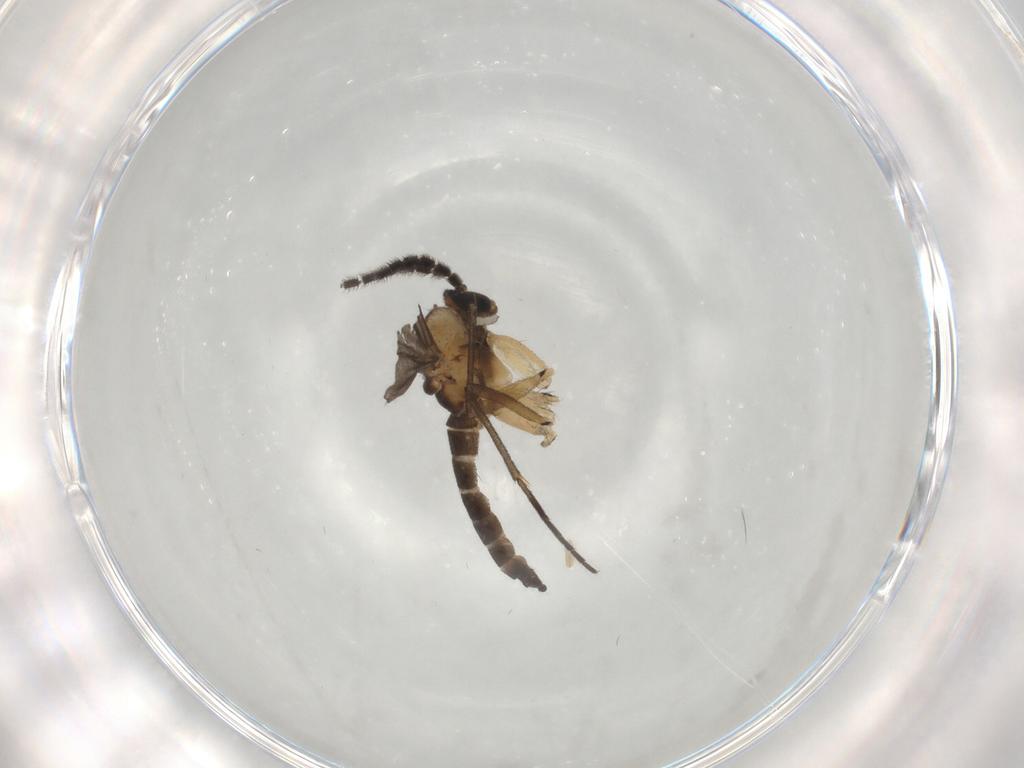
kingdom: Animalia
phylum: Arthropoda
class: Insecta
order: Diptera
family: Sciaridae
